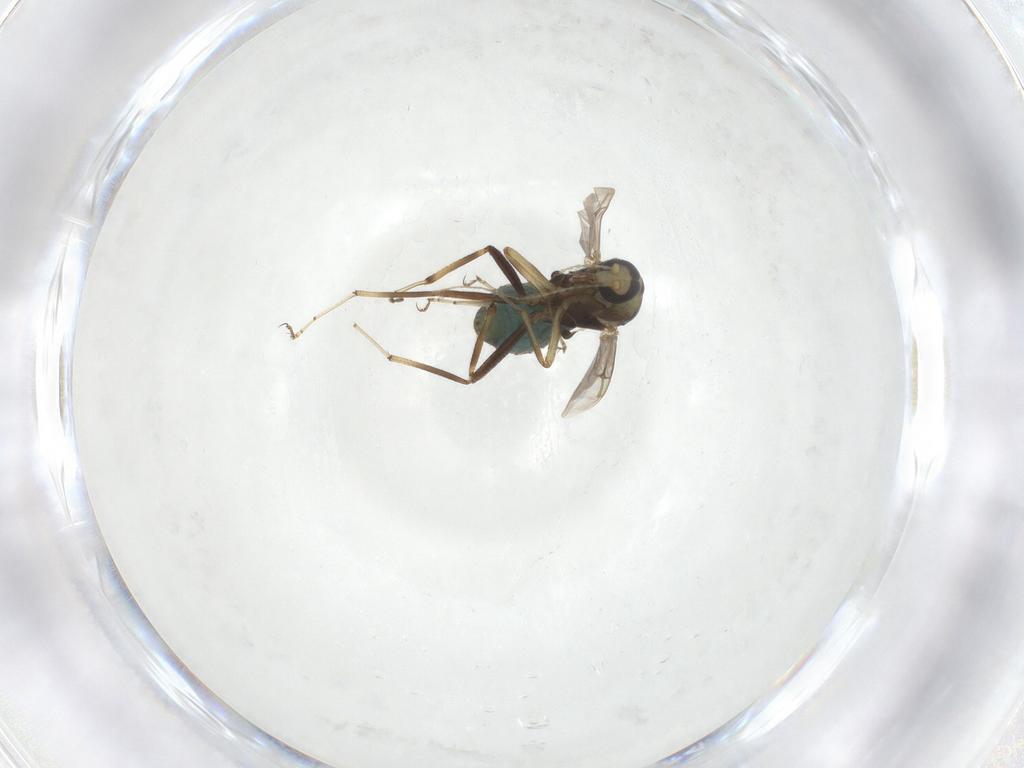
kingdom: Animalia
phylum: Arthropoda
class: Insecta
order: Diptera
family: Ceratopogonidae
